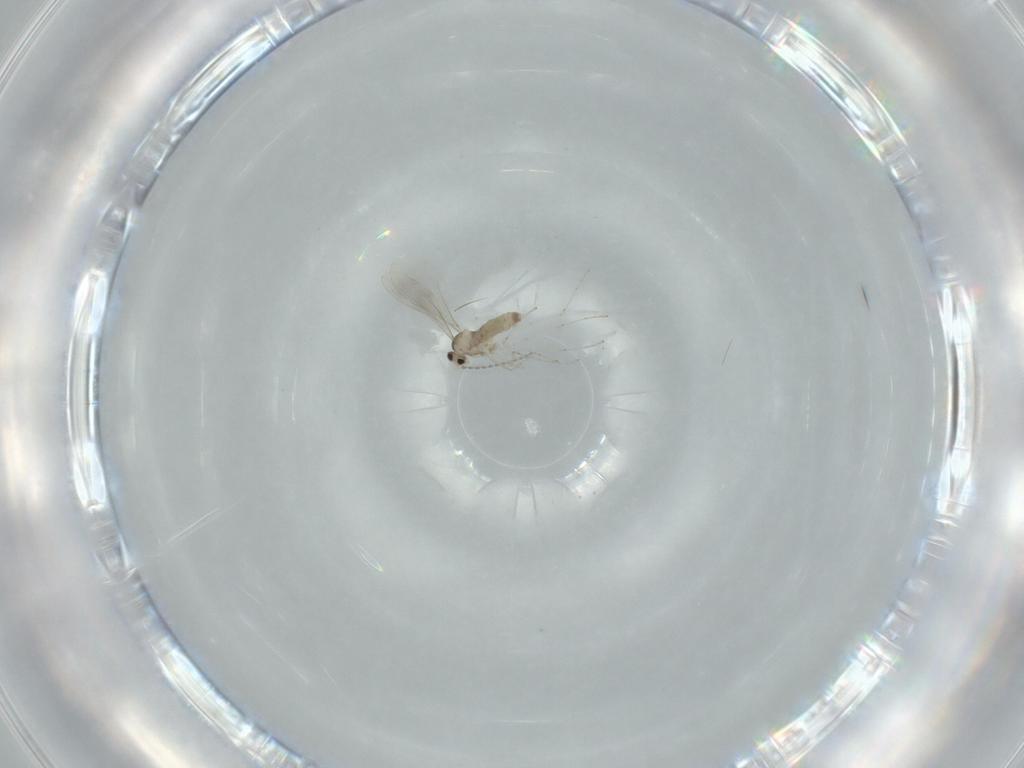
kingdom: Animalia
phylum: Arthropoda
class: Insecta
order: Diptera
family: Cecidomyiidae
